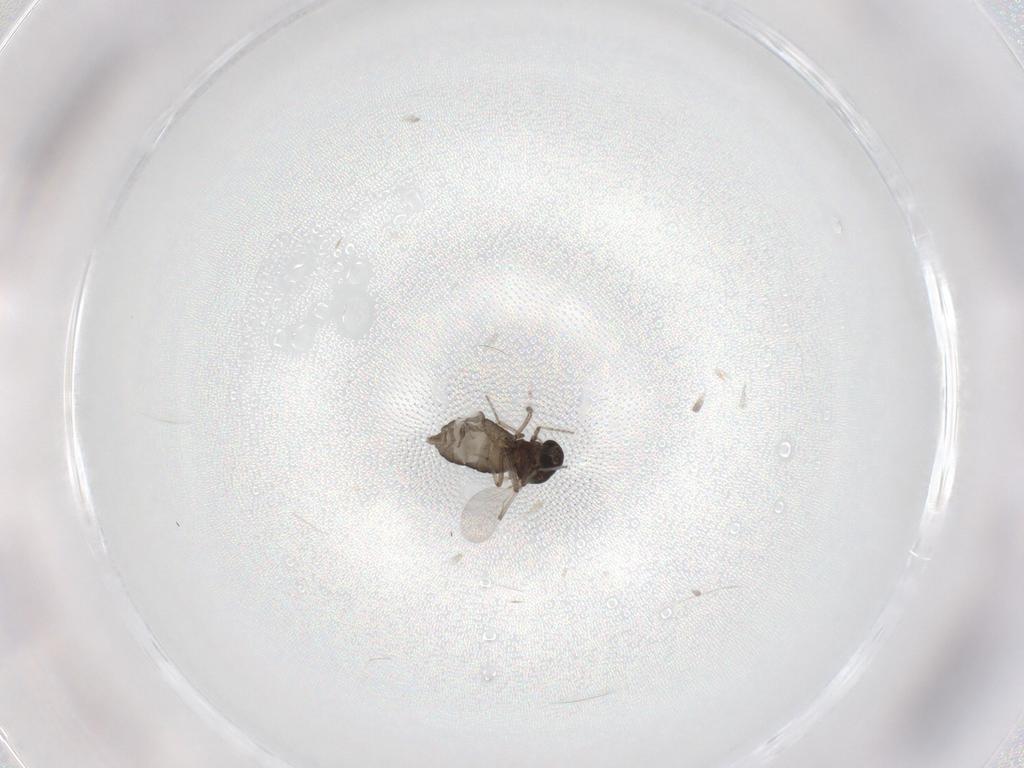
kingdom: Animalia
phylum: Arthropoda
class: Insecta
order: Diptera
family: Ceratopogonidae
